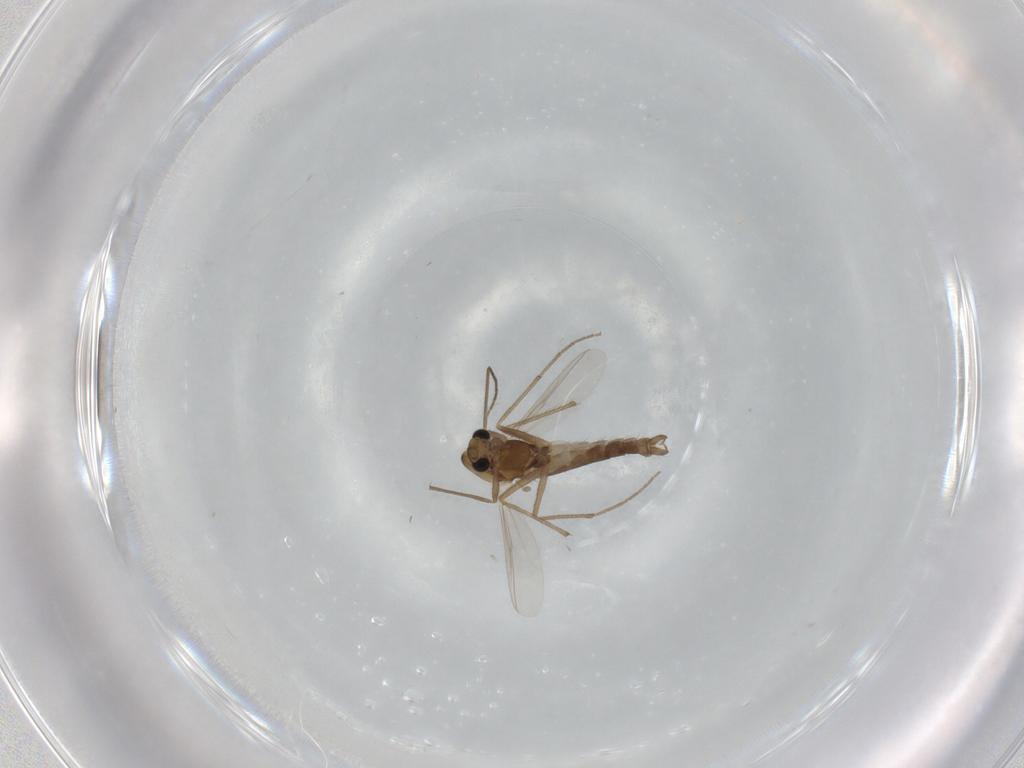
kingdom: Animalia
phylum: Arthropoda
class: Insecta
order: Diptera
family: Chironomidae
